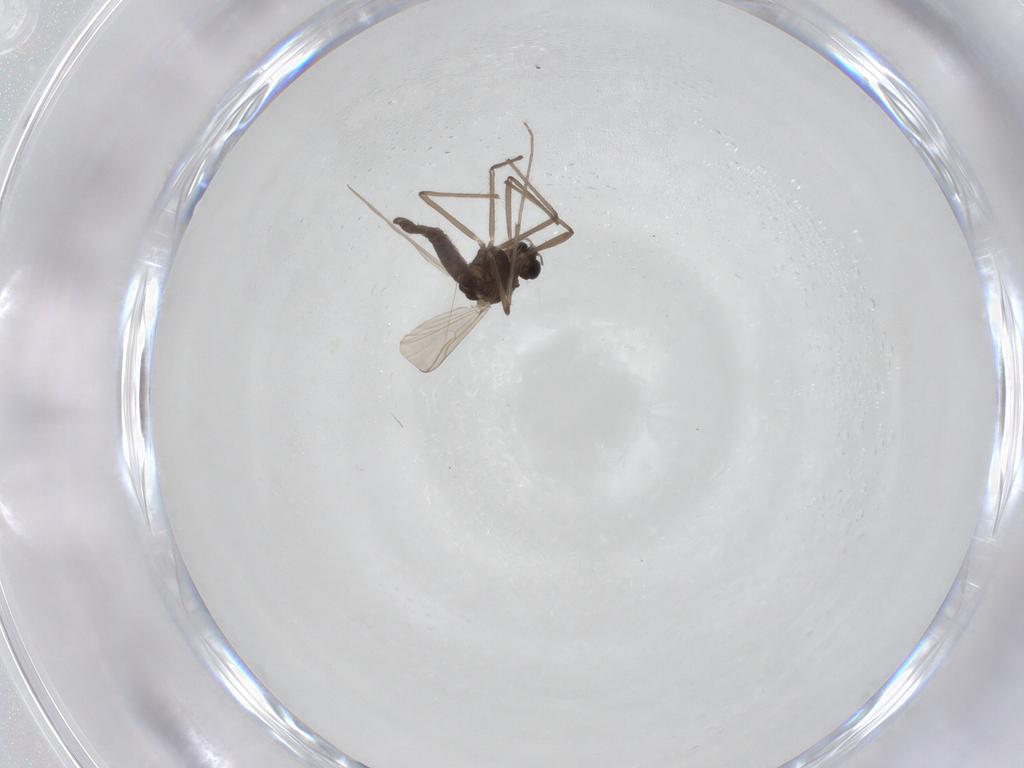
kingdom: Animalia
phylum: Arthropoda
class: Insecta
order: Diptera
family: Chironomidae
